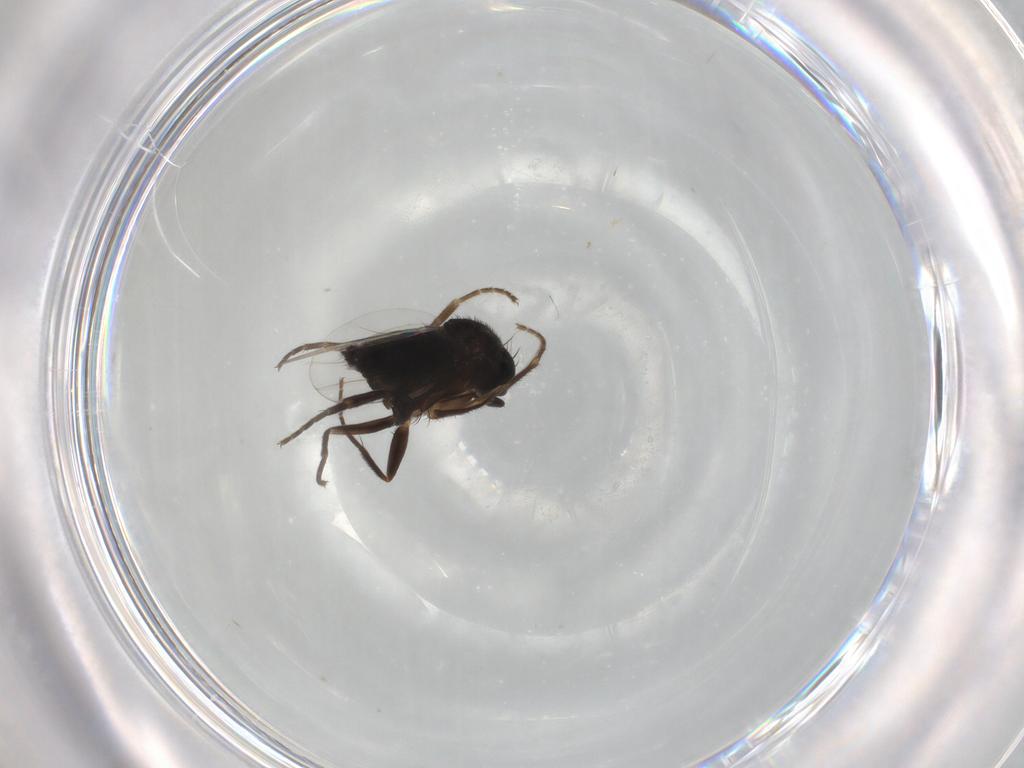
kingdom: Animalia
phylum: Arthropoda
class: Insecta
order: Diptera
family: Phoridae
